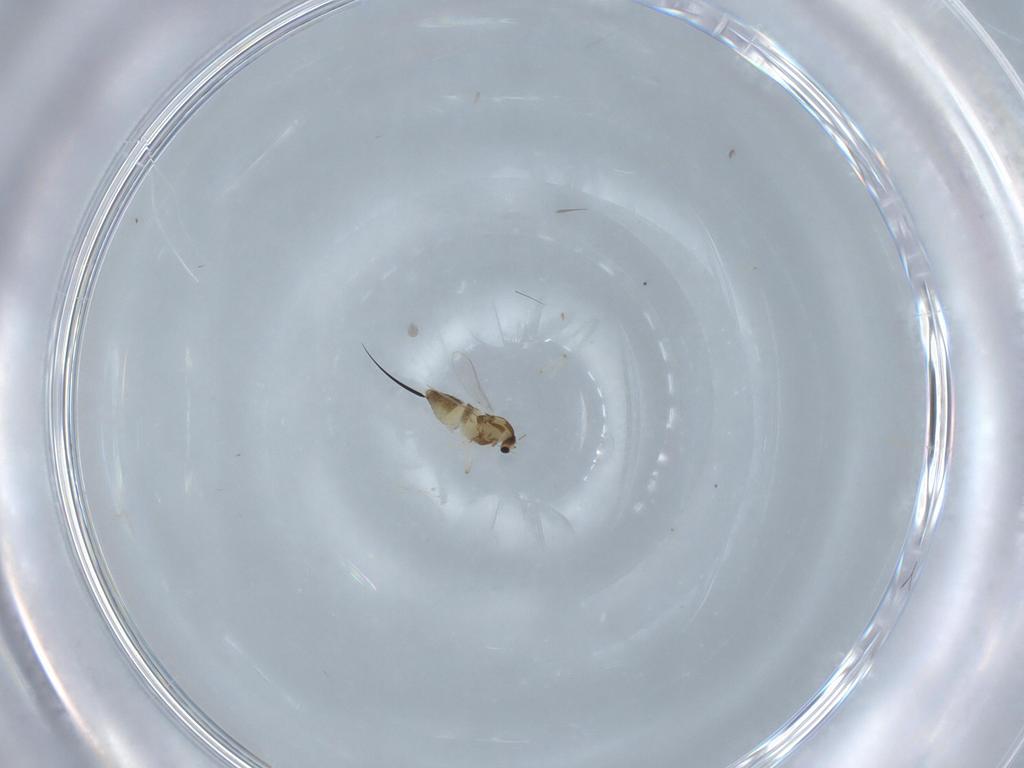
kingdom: Animalia
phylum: Arthropoda
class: Insecta
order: Diptera
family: Chironomidae
